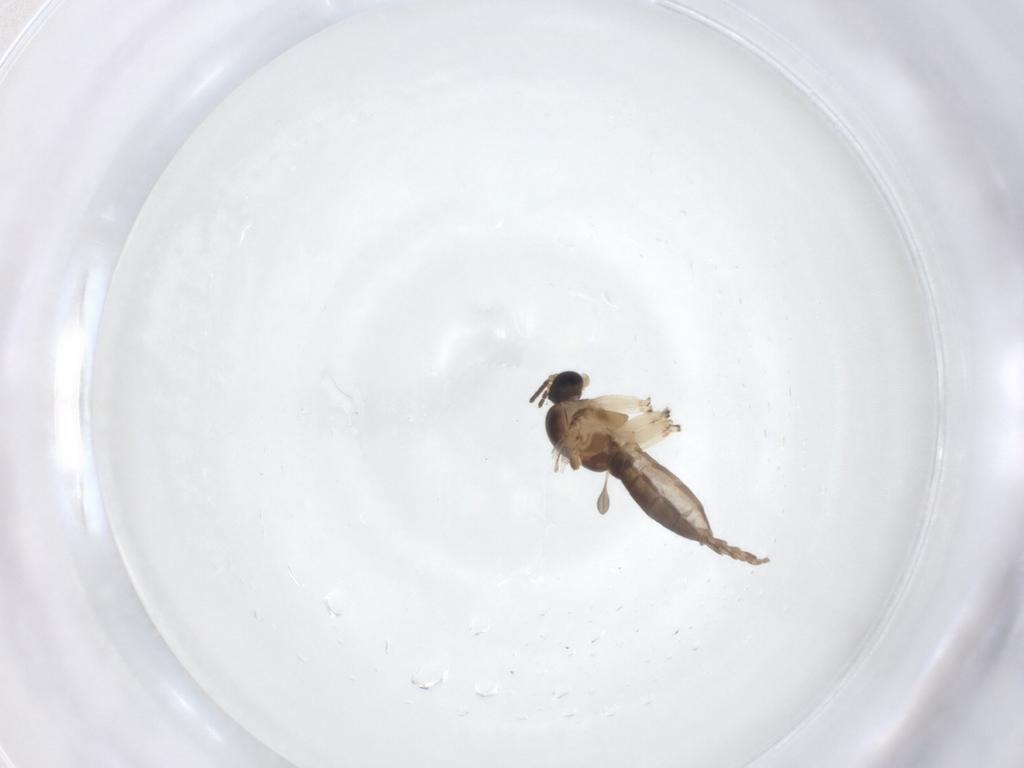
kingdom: Animalia
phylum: Arthropoda
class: Insecta
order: Diptera
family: Sciaridae
